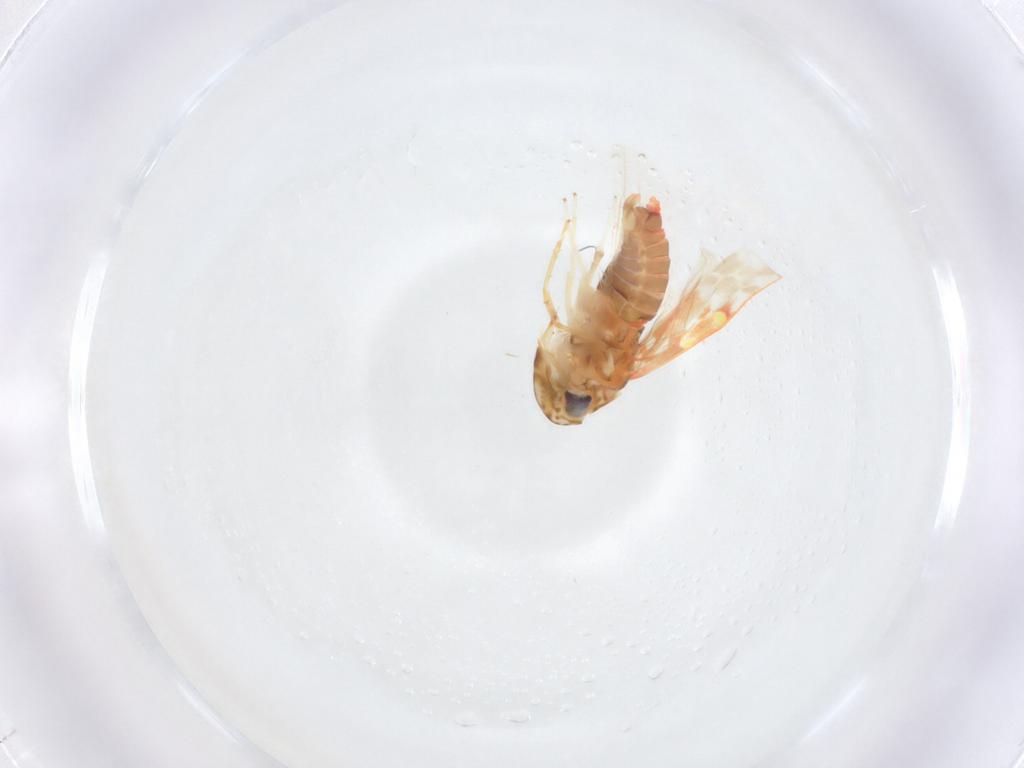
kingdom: Animalia
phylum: Arthropoda
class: Insecta
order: Hemiptera
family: Cicadellidae
